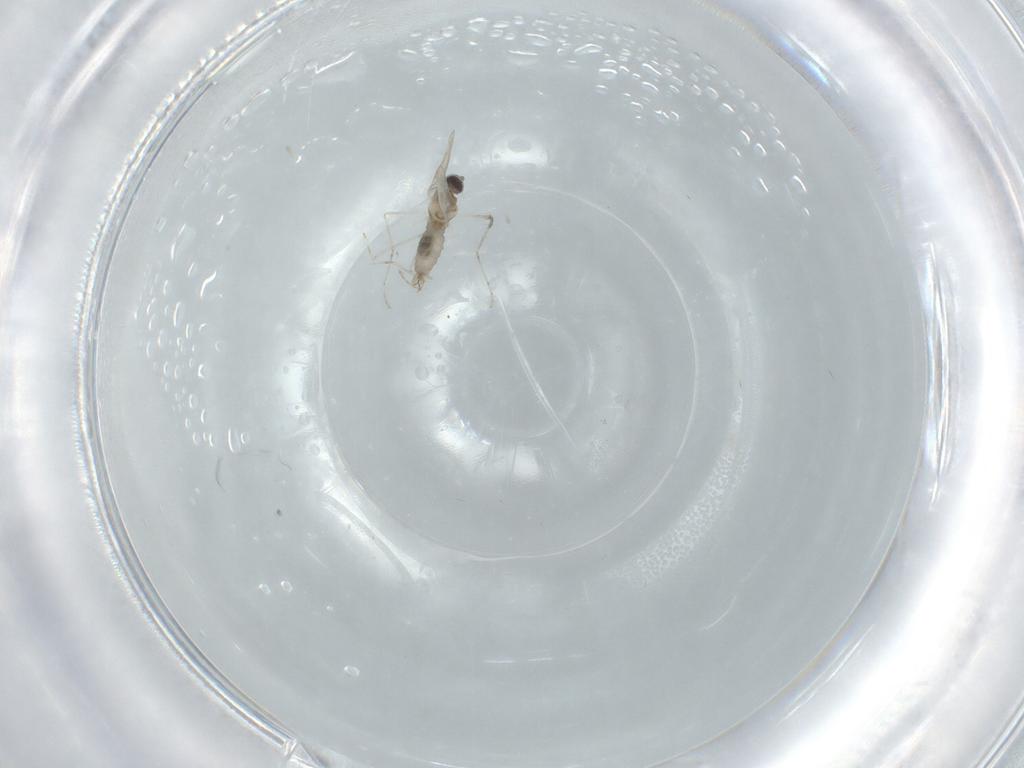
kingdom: Animalia
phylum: Arthropoda
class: Insecta
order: Diptera
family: Cecidomyiidae
